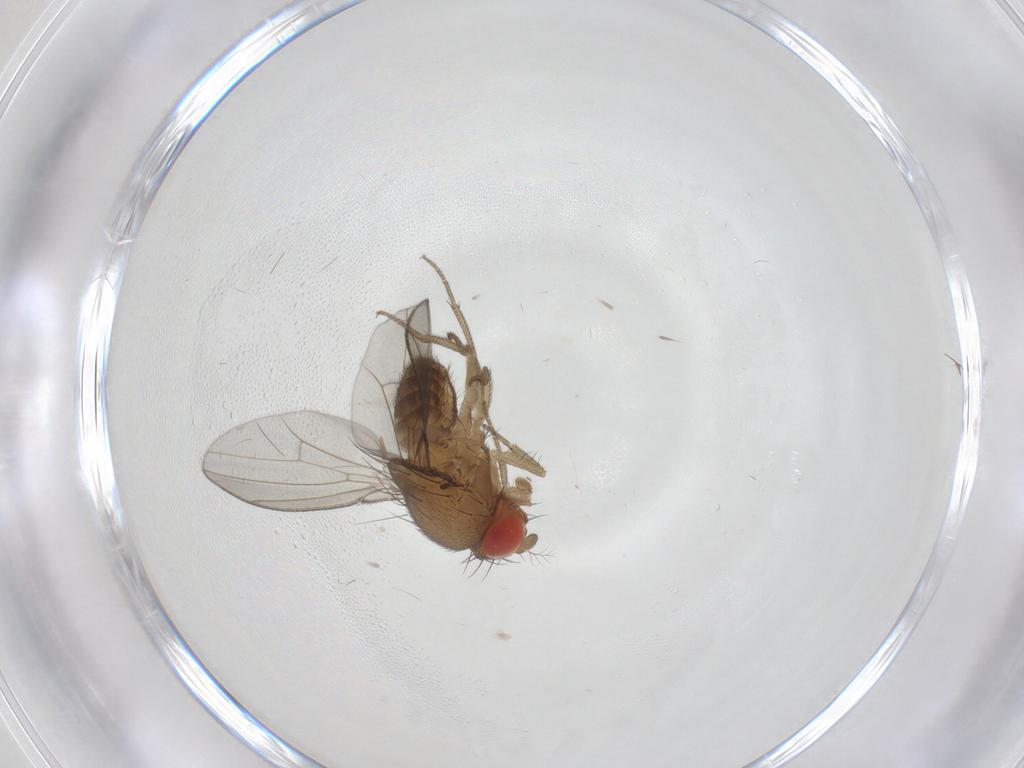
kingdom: Animalia
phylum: Arthropoda
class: Insecta
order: Diptera
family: Drosophilidae
